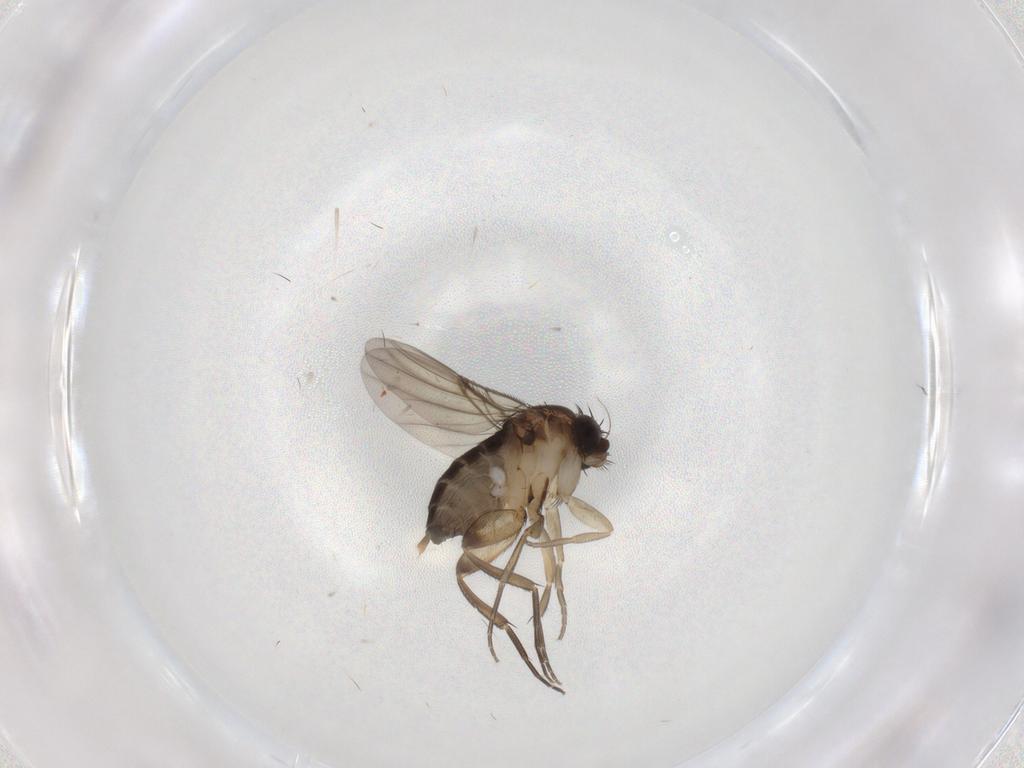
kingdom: Animalia
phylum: Arthropoda
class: Insecta
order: Diptera
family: Phoridae
